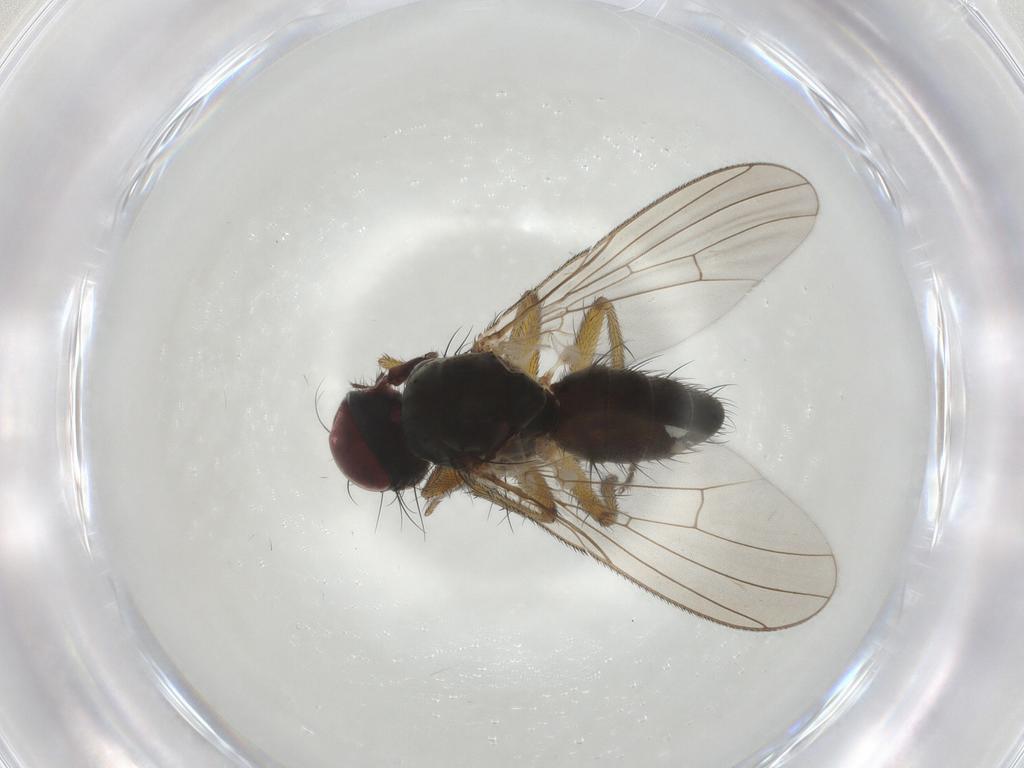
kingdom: Animalia
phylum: Arthropoda
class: Insecta
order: Diptera
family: Muscidae
